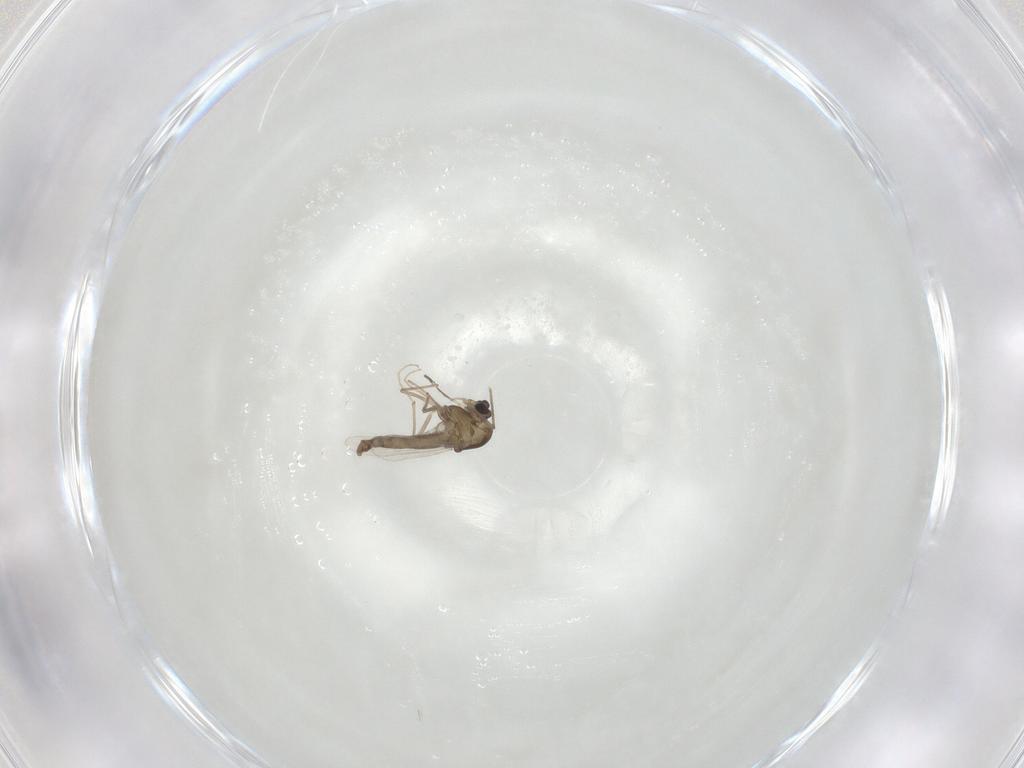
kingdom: Animalia
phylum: Arthropoda
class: Insecta
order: Diptera
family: Chironomidae
